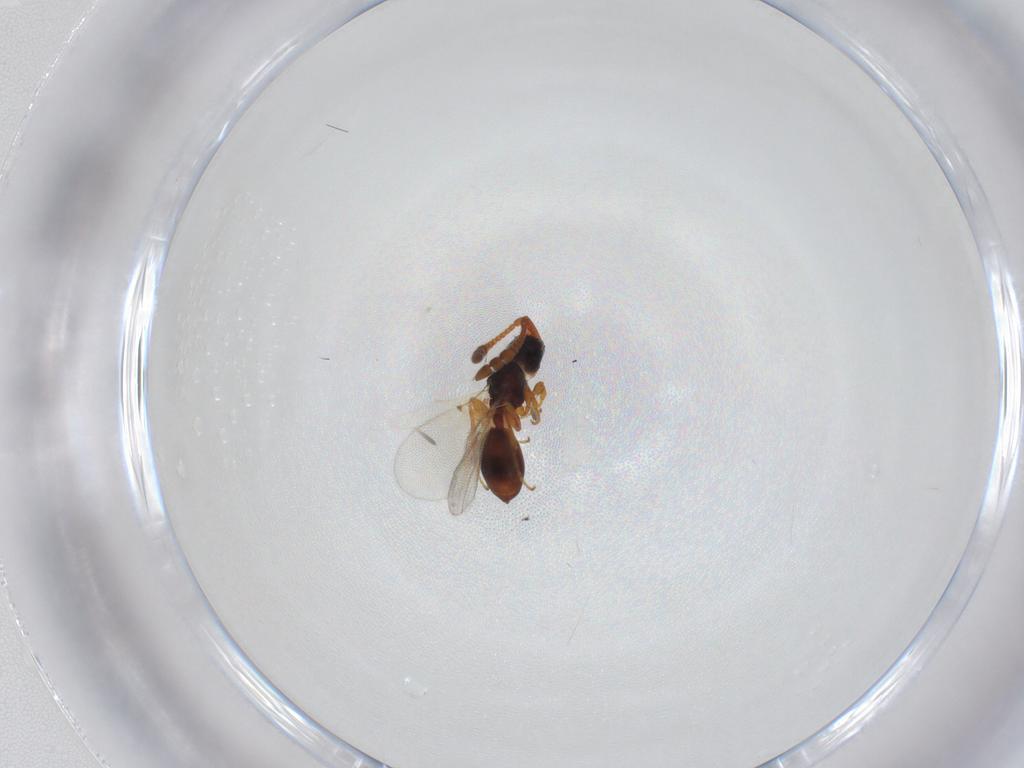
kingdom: Animalia
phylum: Arthropoda
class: Insecta
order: Hymenoptera
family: Diapriidae
